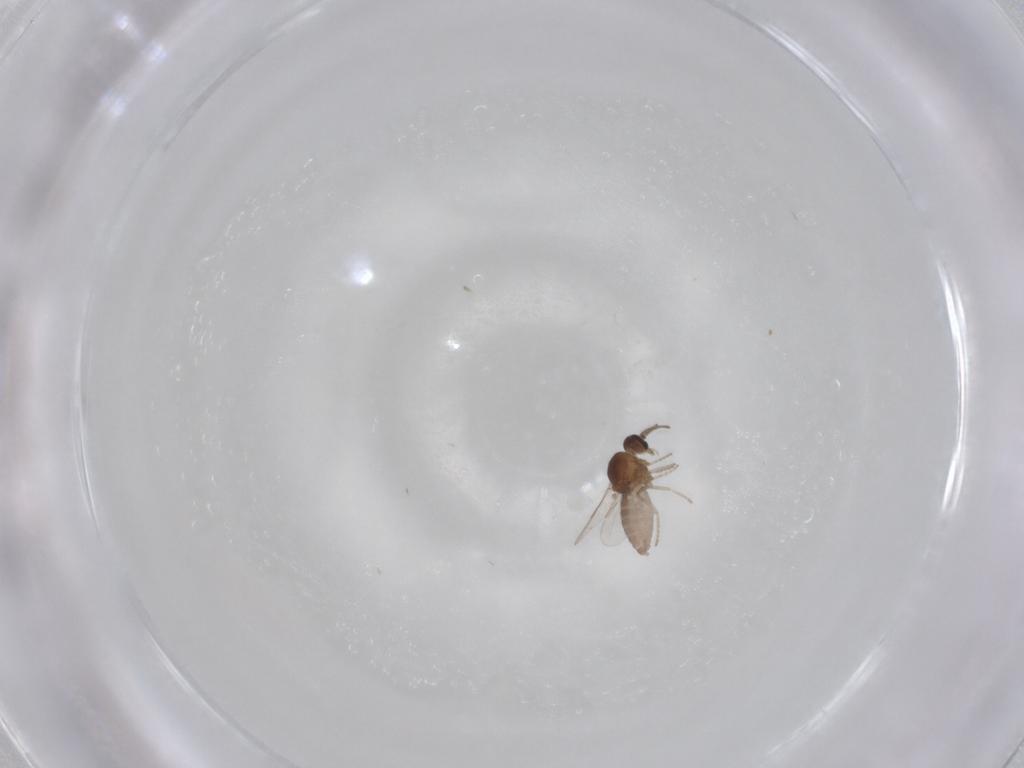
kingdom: Animalia
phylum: Arthropoda
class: Insecta
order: Diptera
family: Ceratopogonidae
